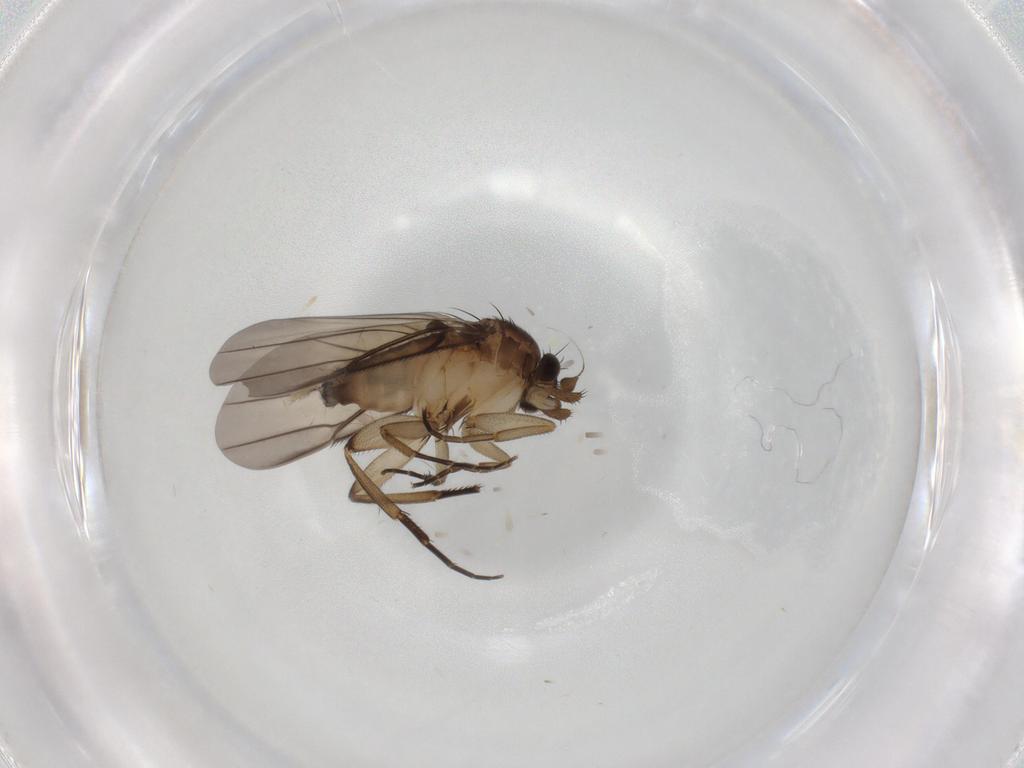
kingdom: Animalia
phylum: Arthropoda
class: Insecta
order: Diptera
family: Phoridae
